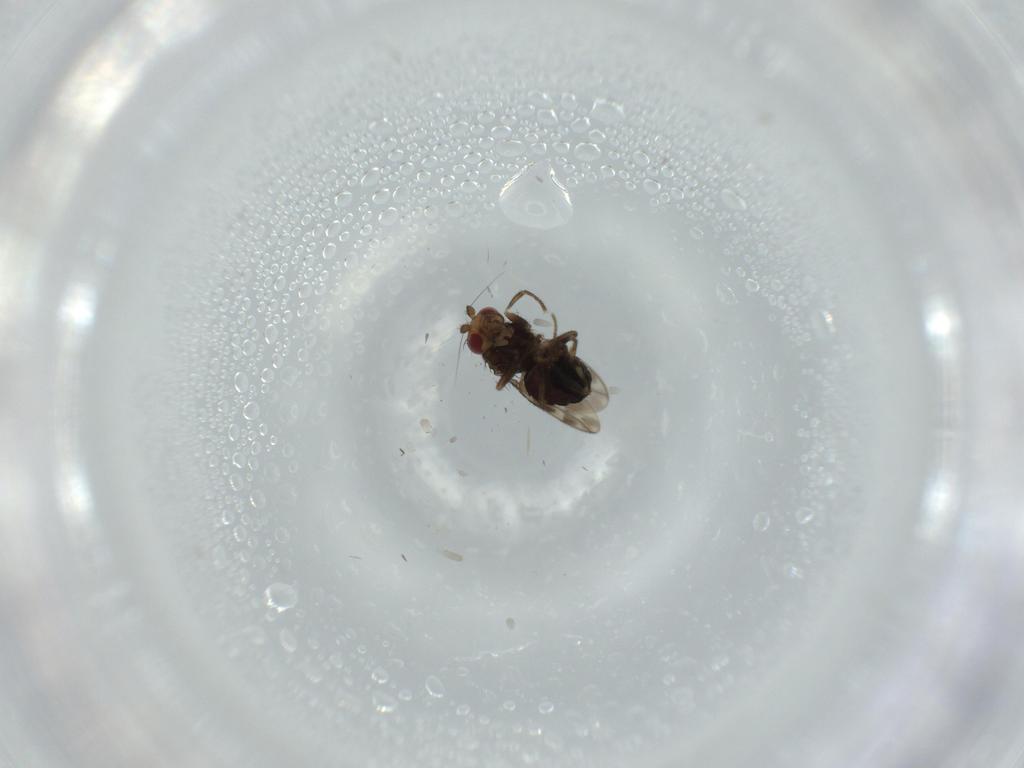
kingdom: Animalia
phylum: Arthropoda
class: Insecta
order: Diptera
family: Sphaeroceridae
